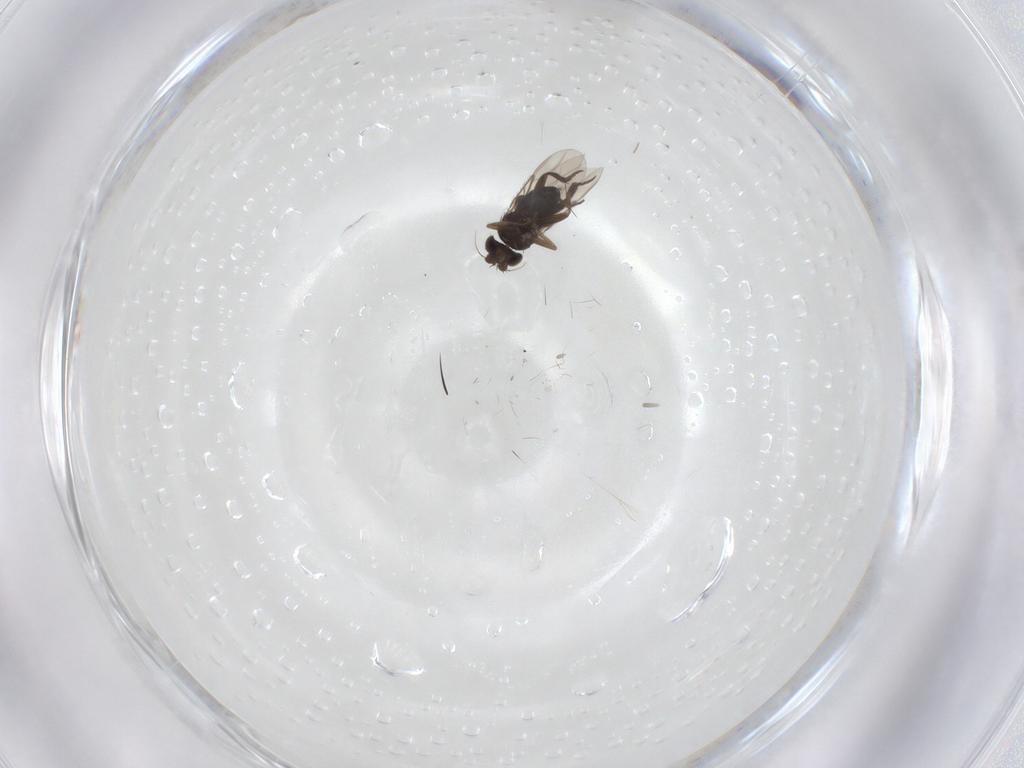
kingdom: Animalia
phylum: Arthropoda
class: Insecta
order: Diptera
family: Phoridae
